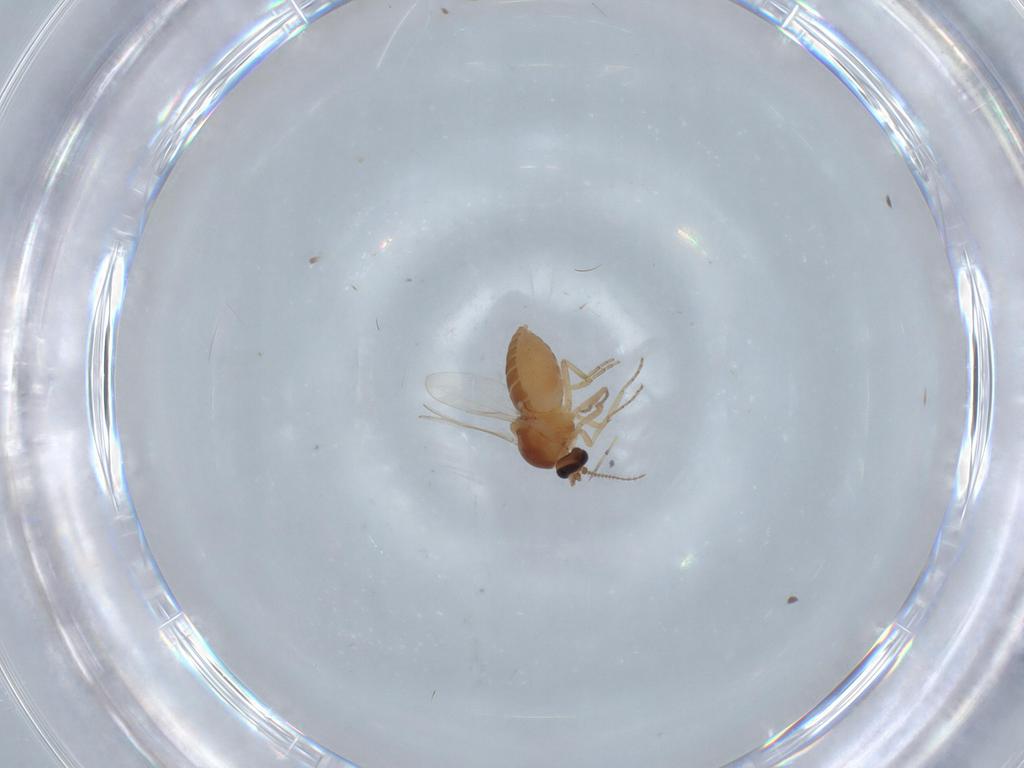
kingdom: Animalia
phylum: Arthropoda
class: Insecta
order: Diptera
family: Ceratopogonidae
